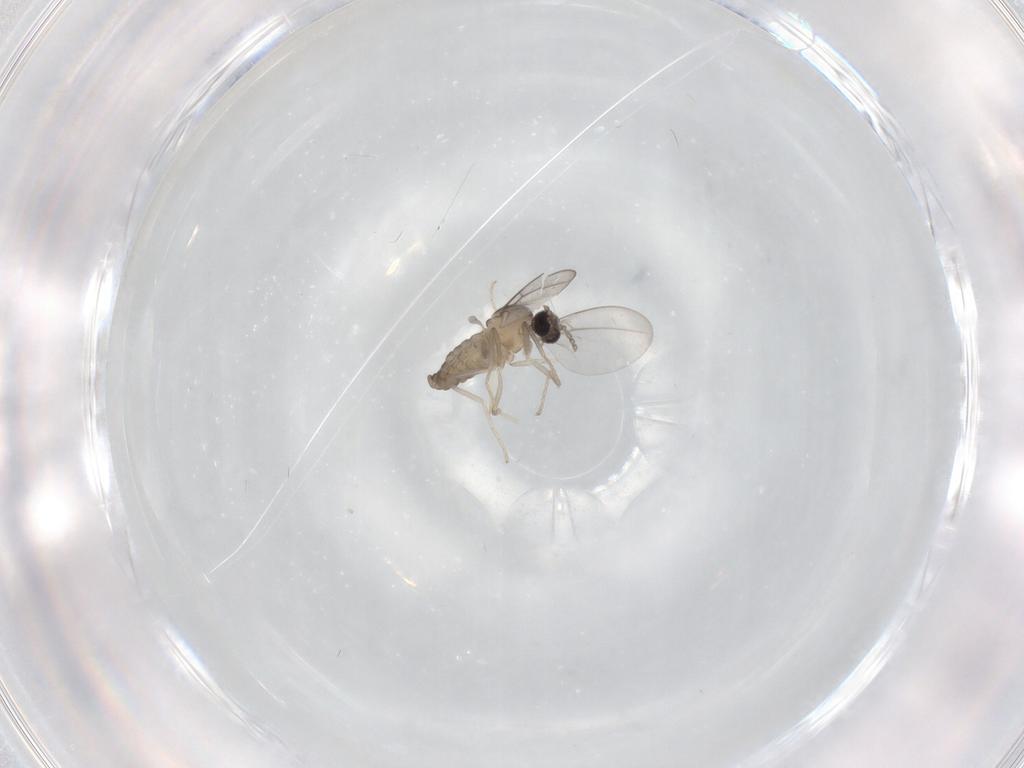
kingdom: Animalia
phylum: Arthropoda
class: Insecta
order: Diptera
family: Cecidomyiidae
